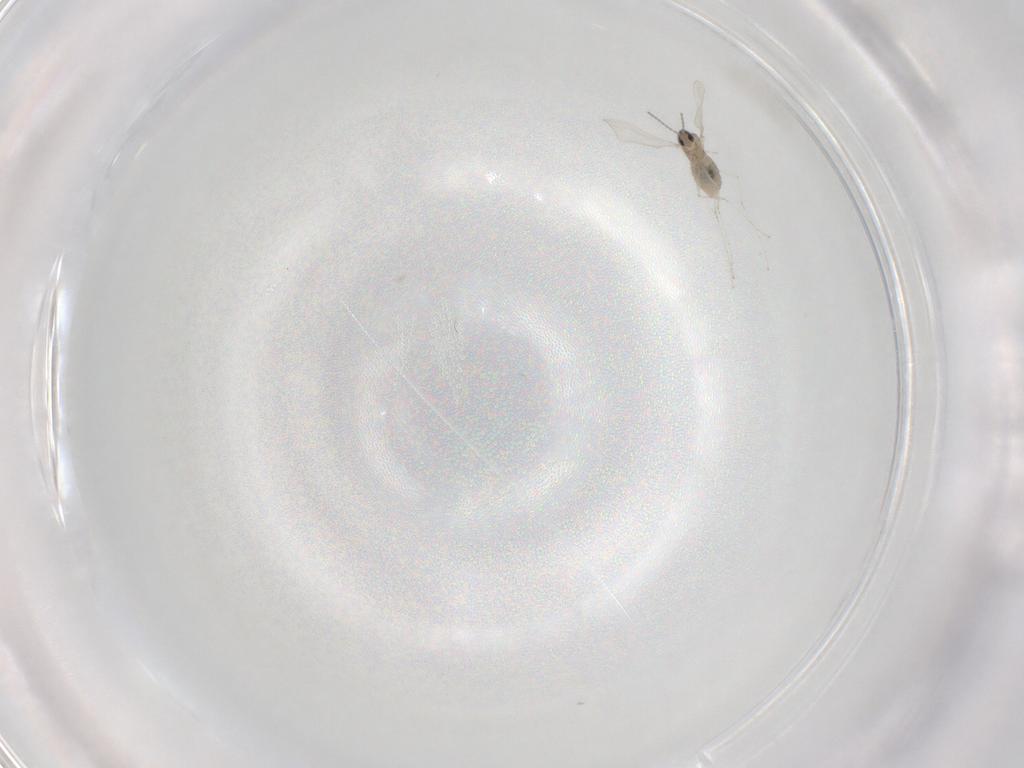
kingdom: Animalia
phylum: Arthropoda
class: Insecta
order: Diptera
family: Cecidomyiidae
